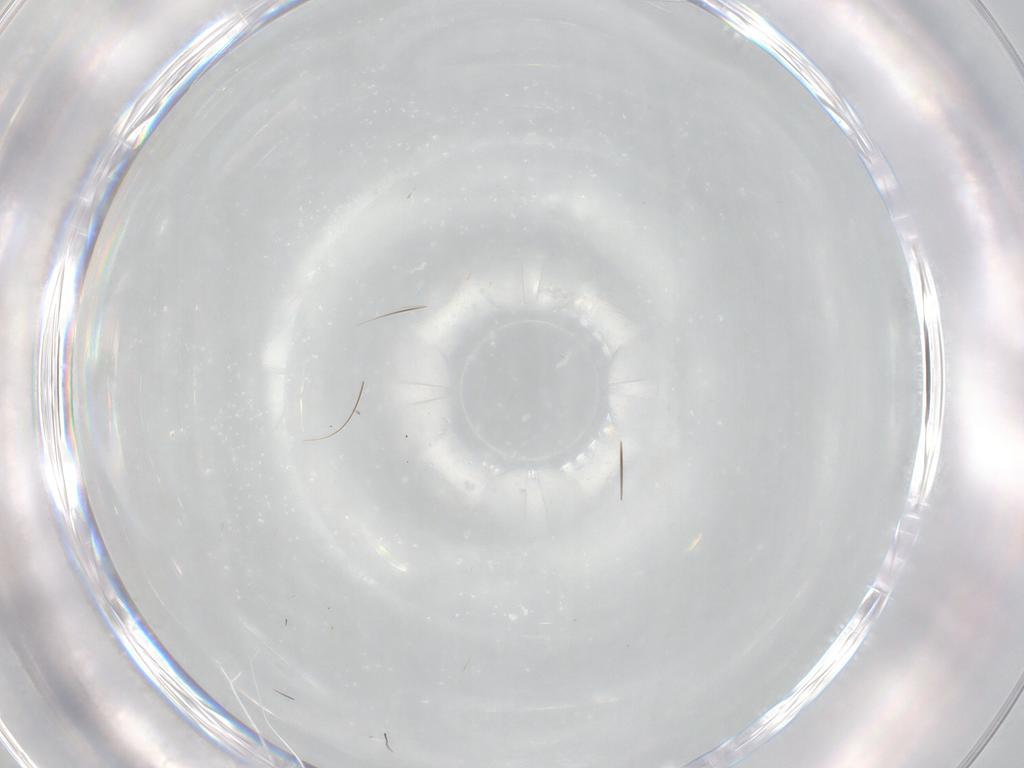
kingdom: Animalia
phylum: Arthropoda
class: Insecta
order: Diptera
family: Phoridae
